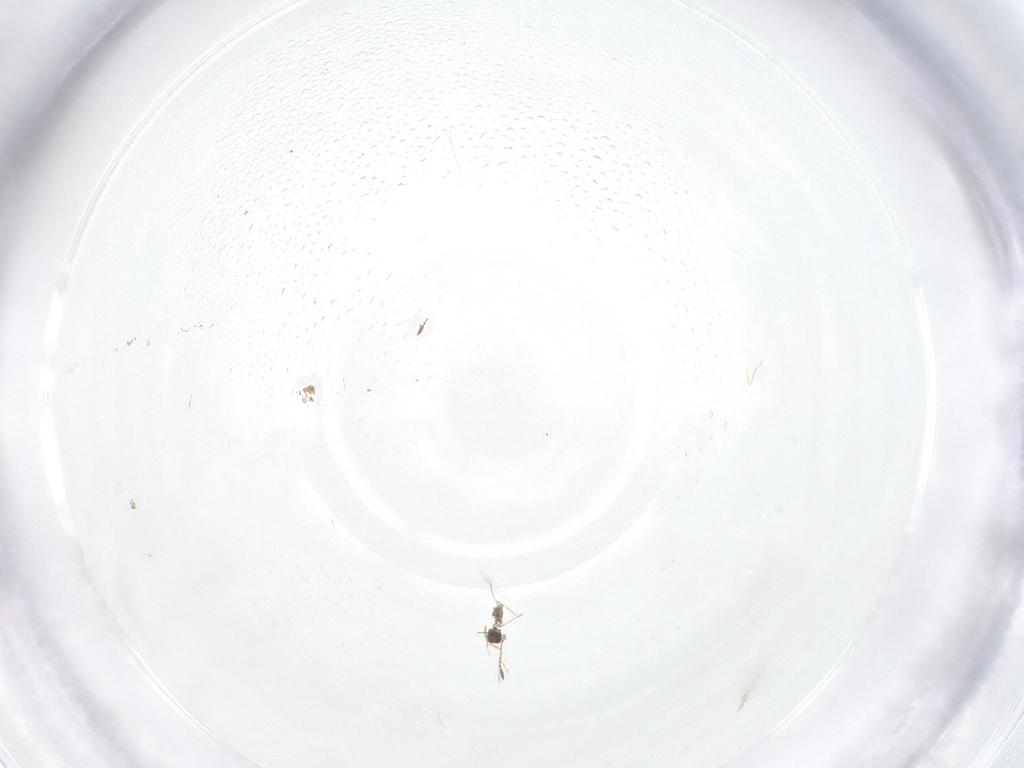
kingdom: Animalia
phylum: Arthropoda
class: Insecta
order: Hymenoptera
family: Mymaridae
